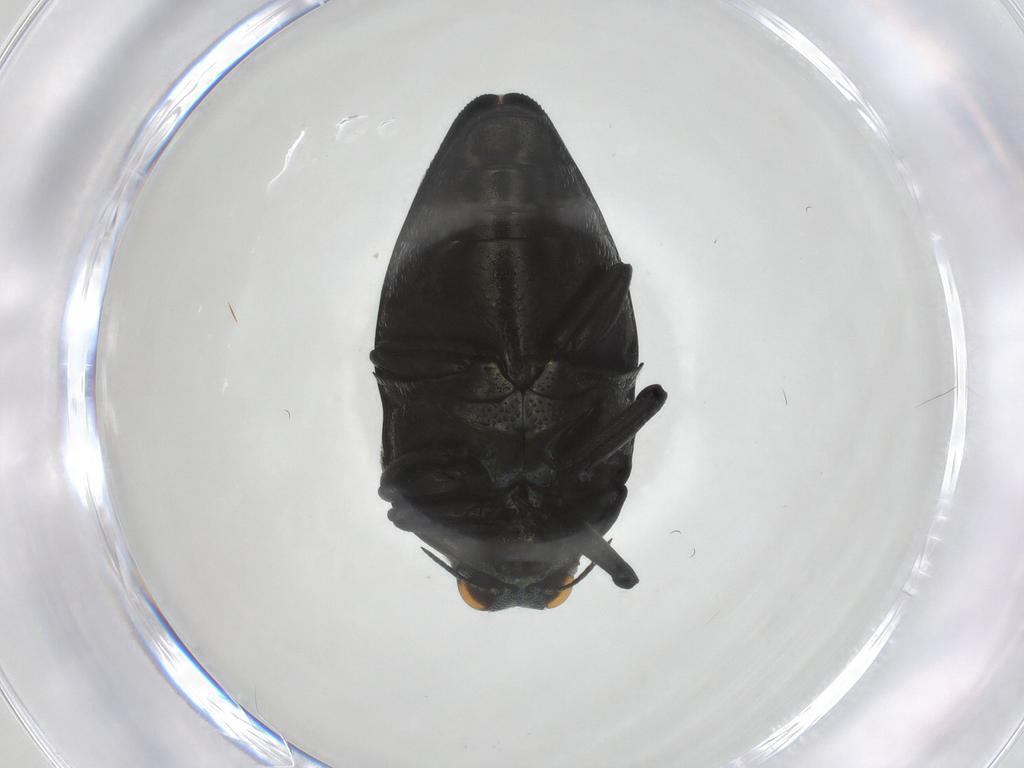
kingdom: Animalia
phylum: Arthropoda
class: Insecta
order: Coleoptera
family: Buprestidae
